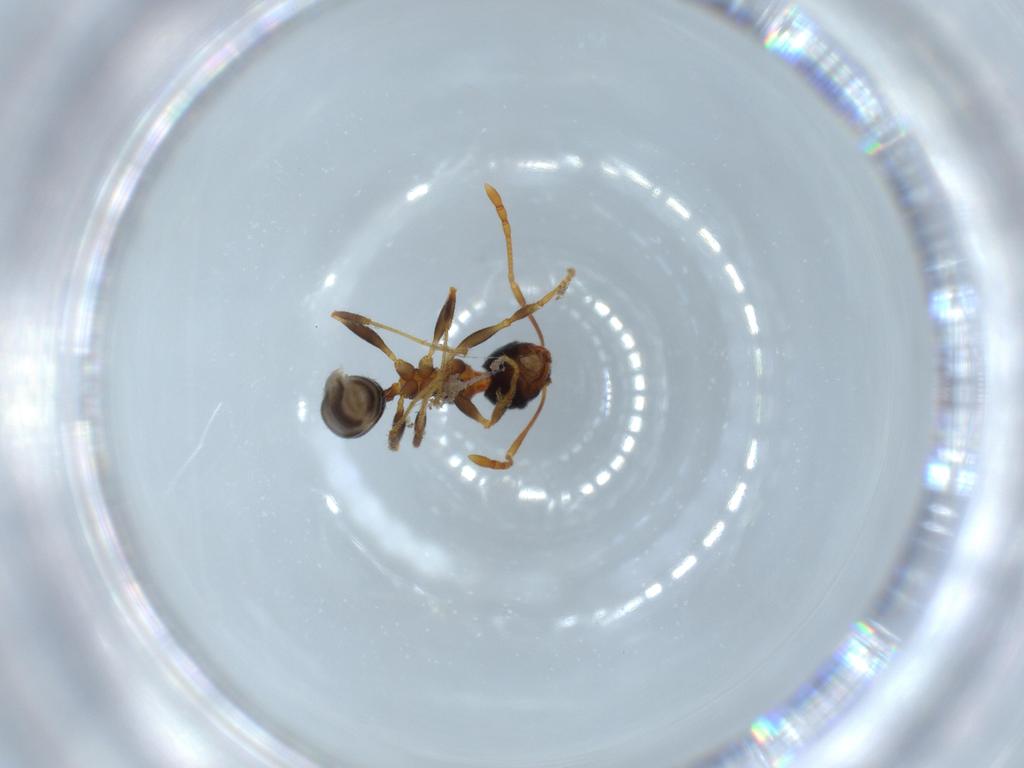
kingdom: Animalia
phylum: Arthropoda
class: Insecta
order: Hymenoptera
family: Formicidae
